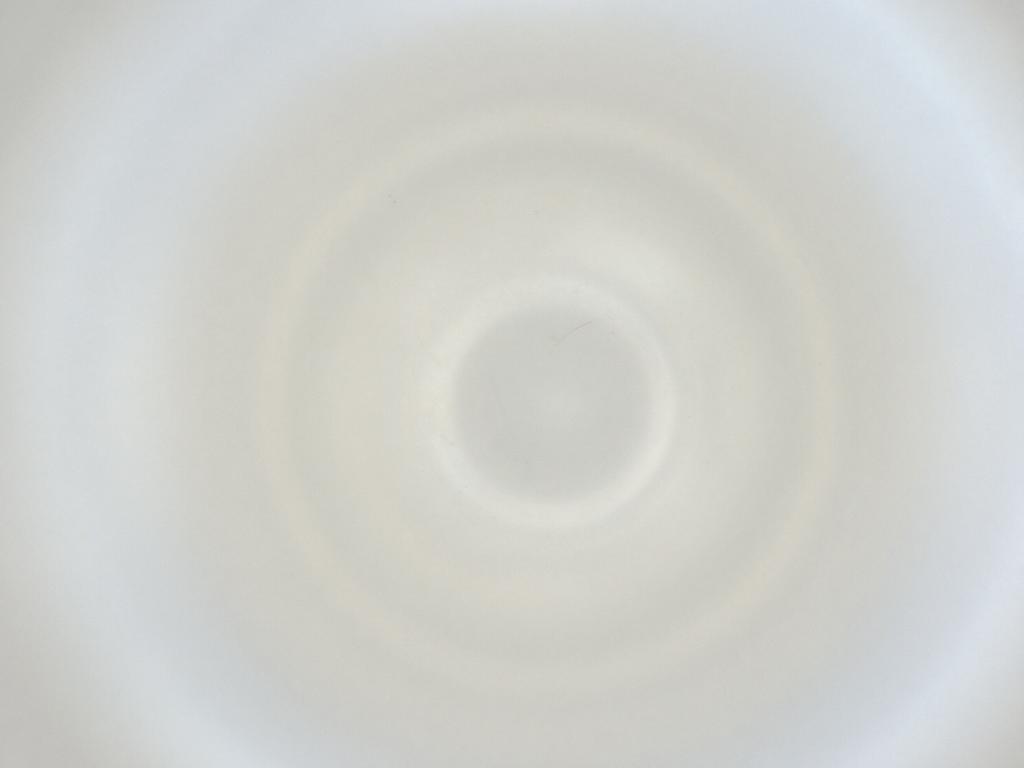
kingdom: Animalia
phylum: Arthropoda
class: Insecta
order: Diptera
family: Cecidomyiidae
